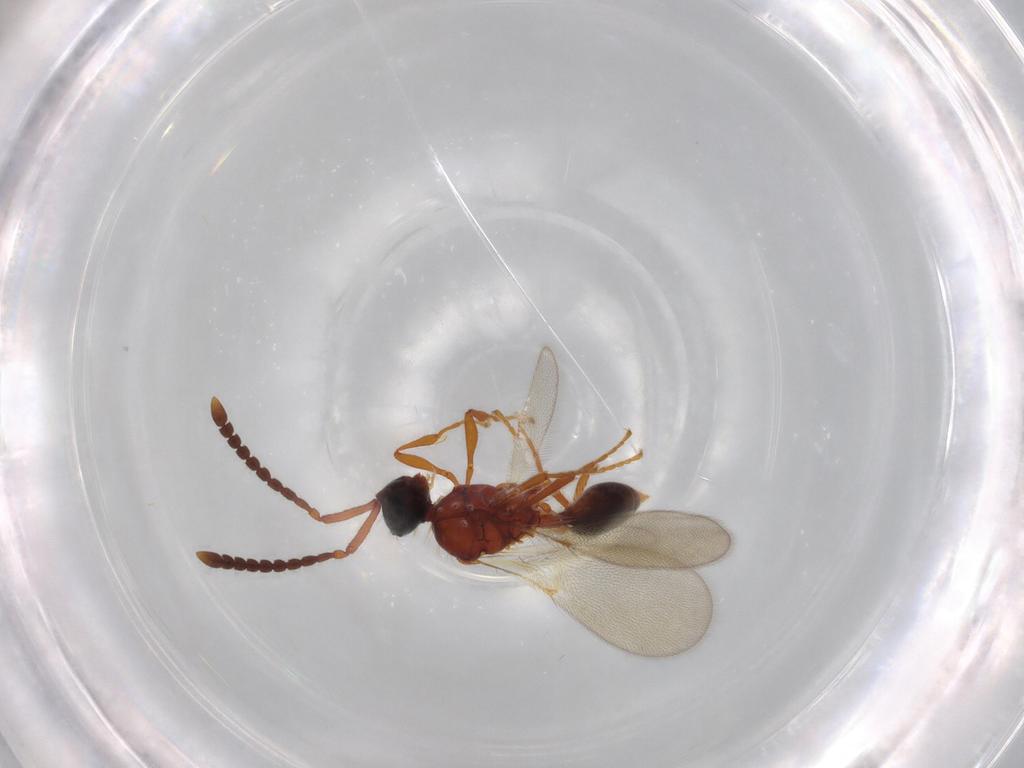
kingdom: Animalia
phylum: Arthropoda
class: Insecta
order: Hymenoptera
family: Diapriidae
